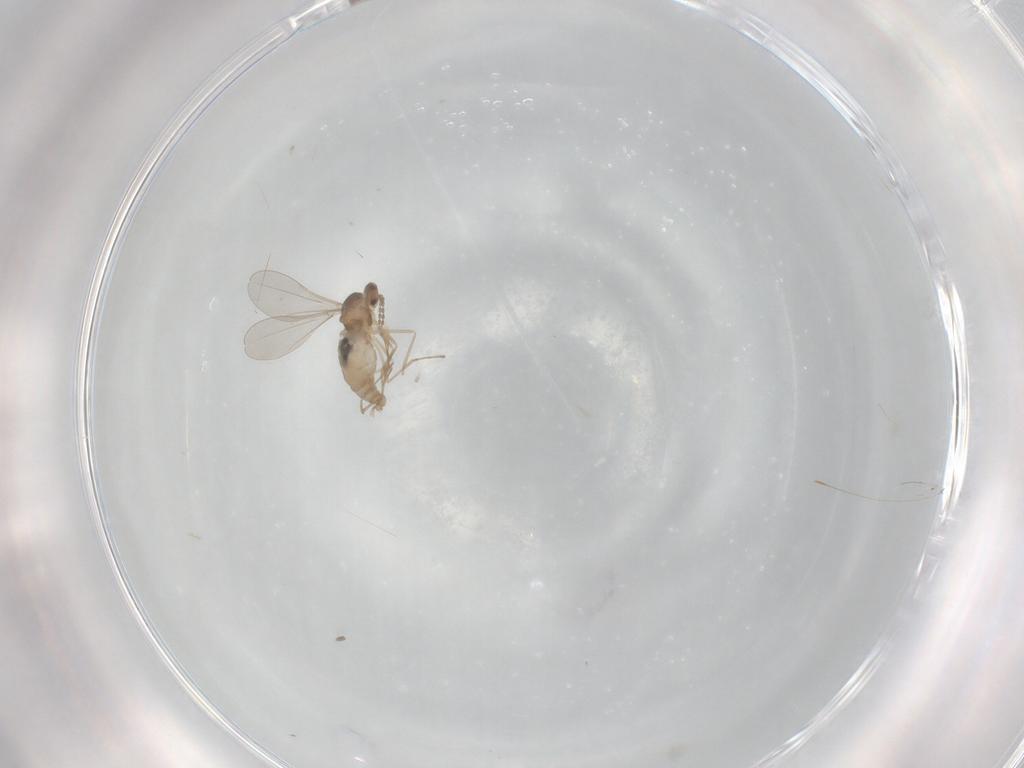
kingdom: Animalia
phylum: Arthropoda
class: Insecta
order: Diptera
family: Cecidomyiidae
